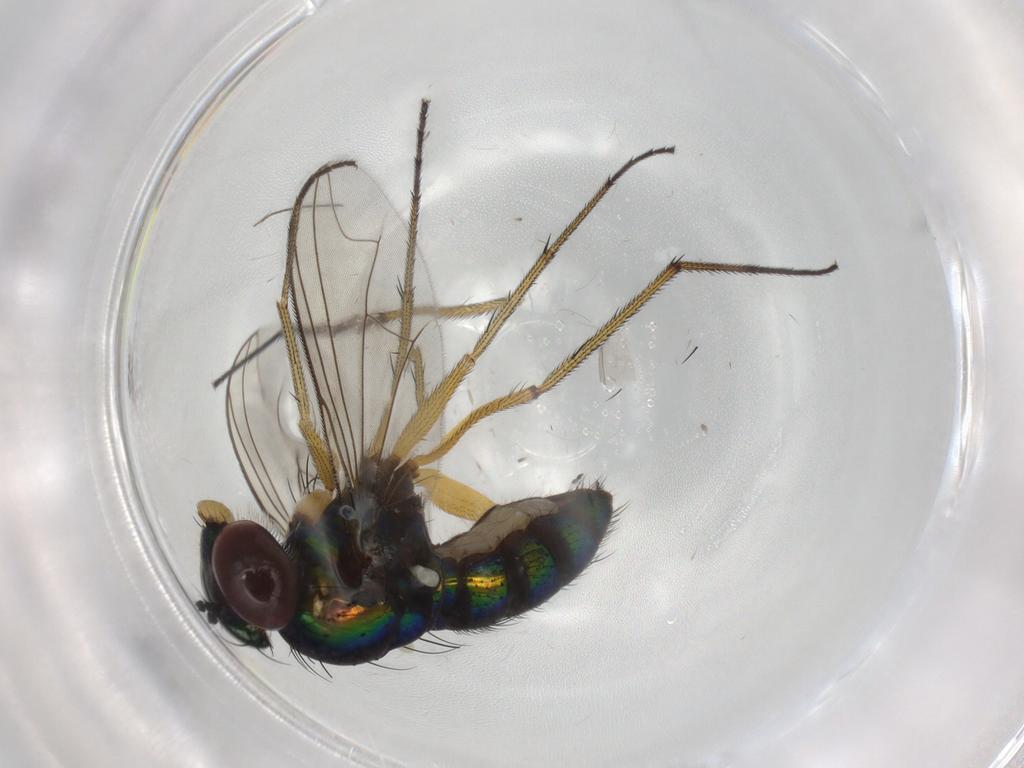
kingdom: Animalia
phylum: Arthropoda
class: Insecta
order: Diptera
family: Dolichopodidae
